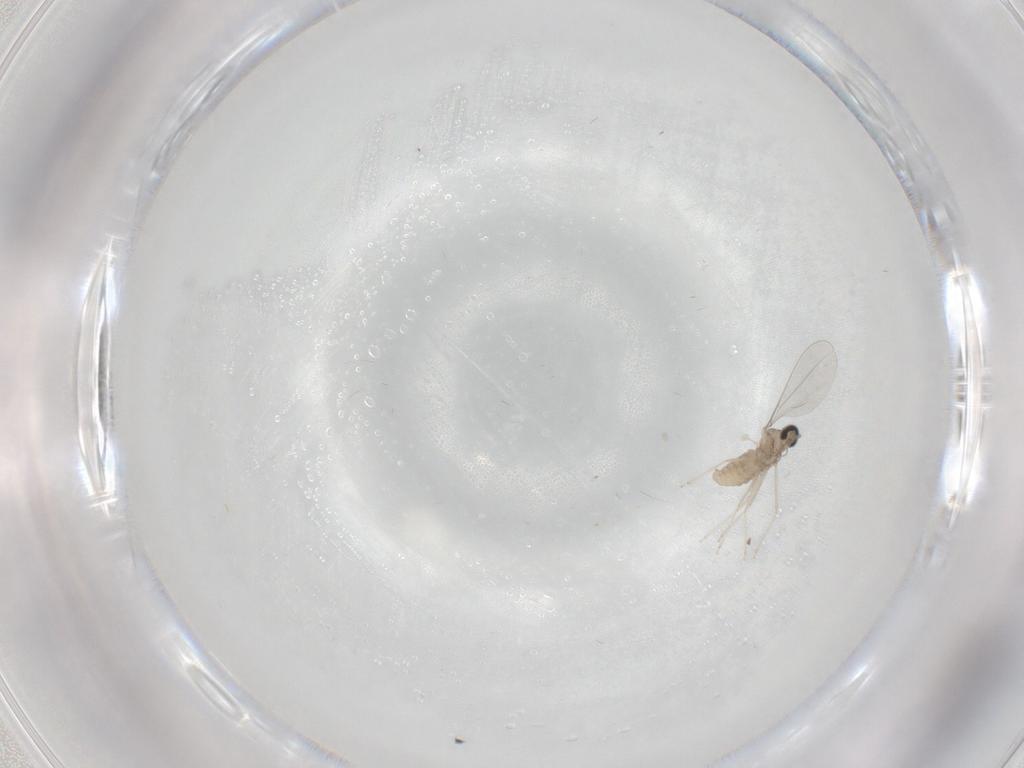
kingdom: Animalia
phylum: Arthropoda
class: Insecta
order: Diptera
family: Cecidomyiidae
